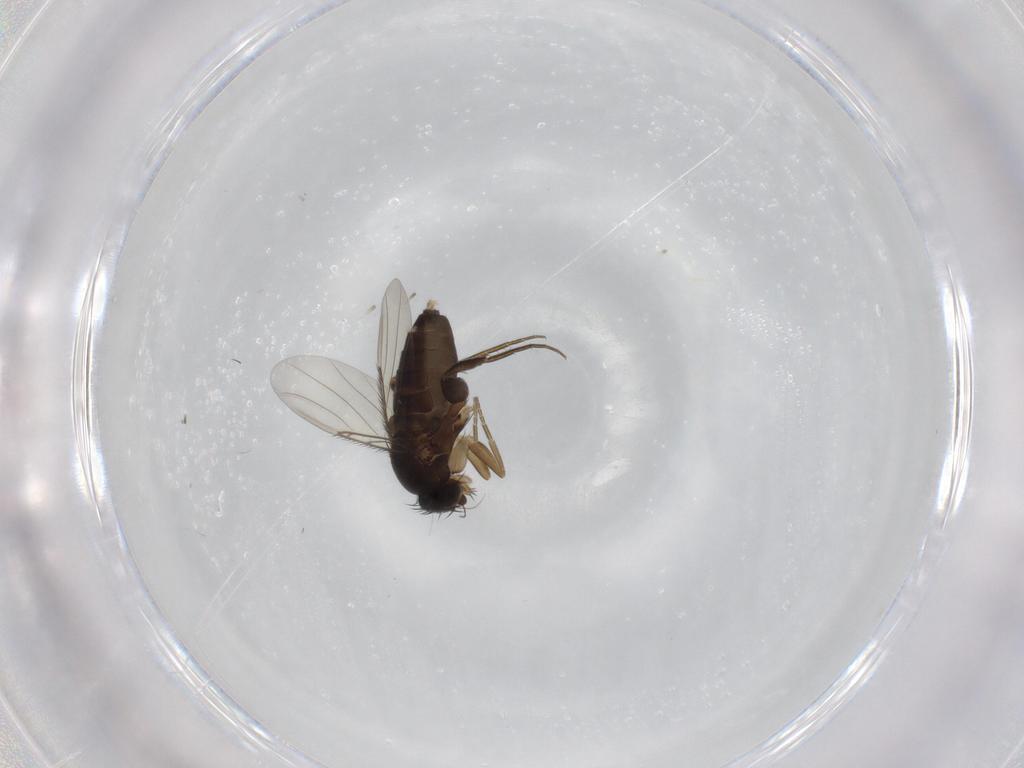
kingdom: Animalia
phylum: Arthropoda
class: Insecta
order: Diptera
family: Phoridae
